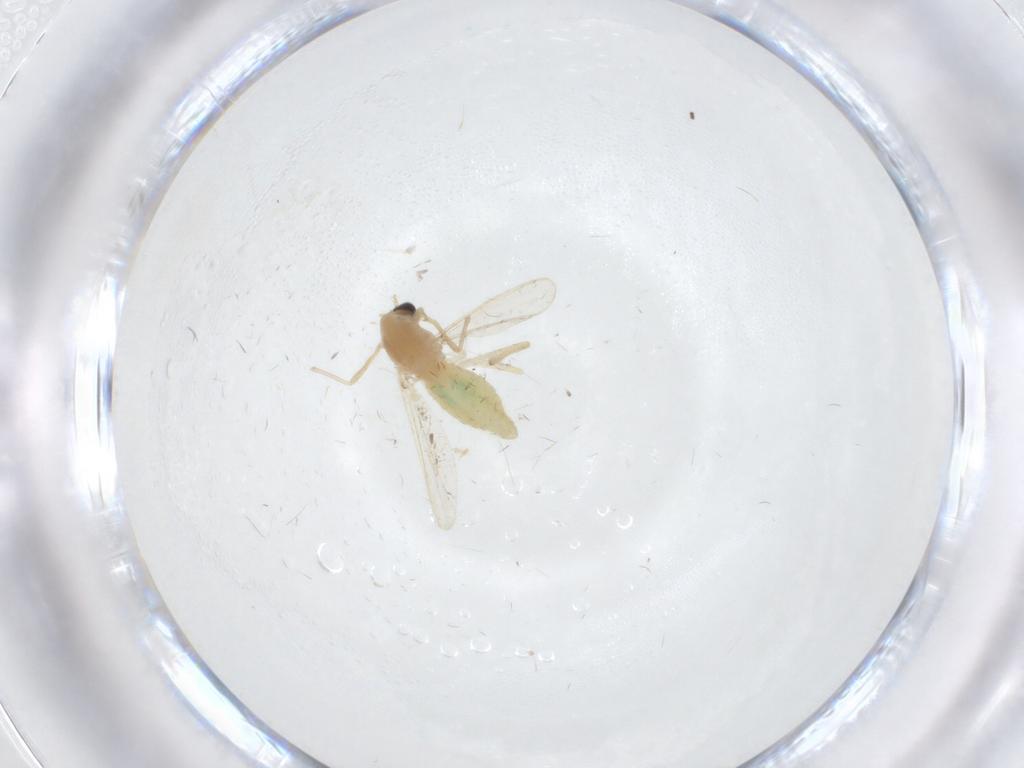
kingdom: Animalia
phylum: Arthropoda
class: Insecta
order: Diptera
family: Chironomidae
